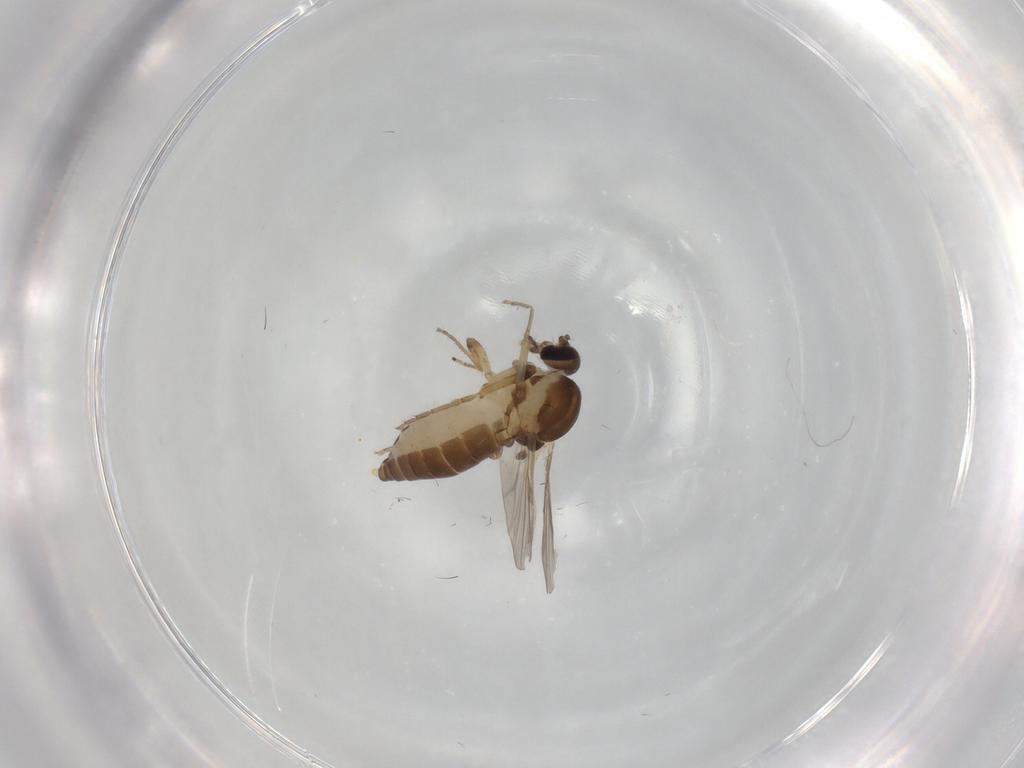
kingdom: Animalia
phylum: Arthropoda
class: Insecta
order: Diptera
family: Ceratopogonidae
